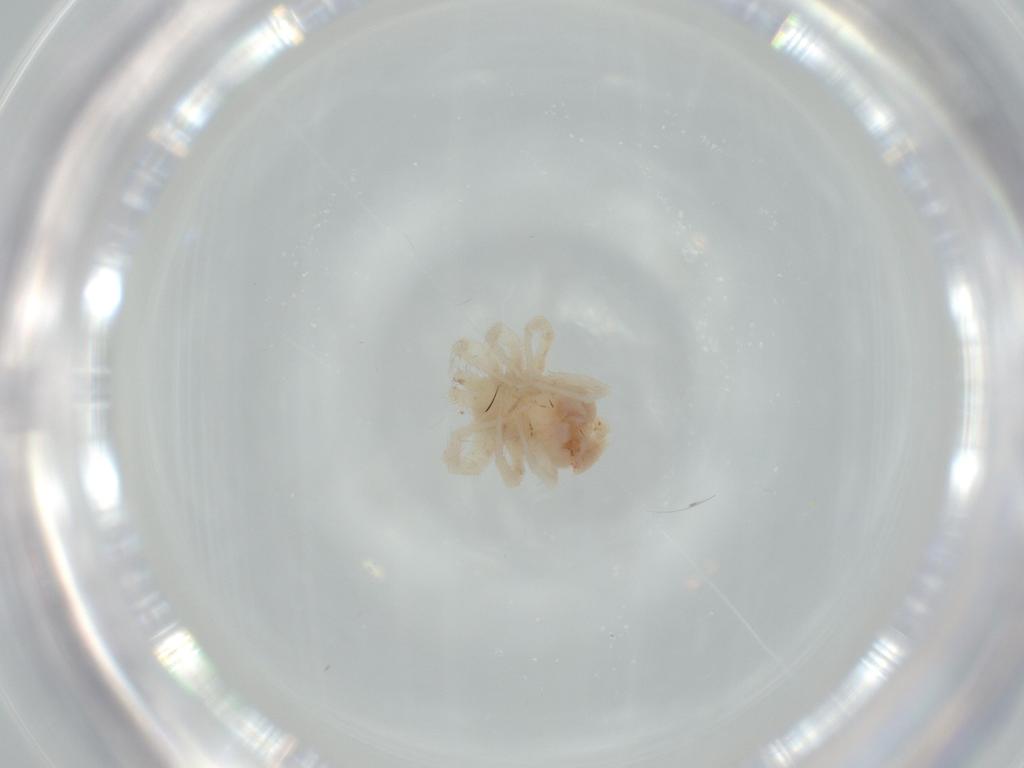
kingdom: Animalia
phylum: Arthropoda
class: Arachnida
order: Trombidiformes
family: Anystidae
